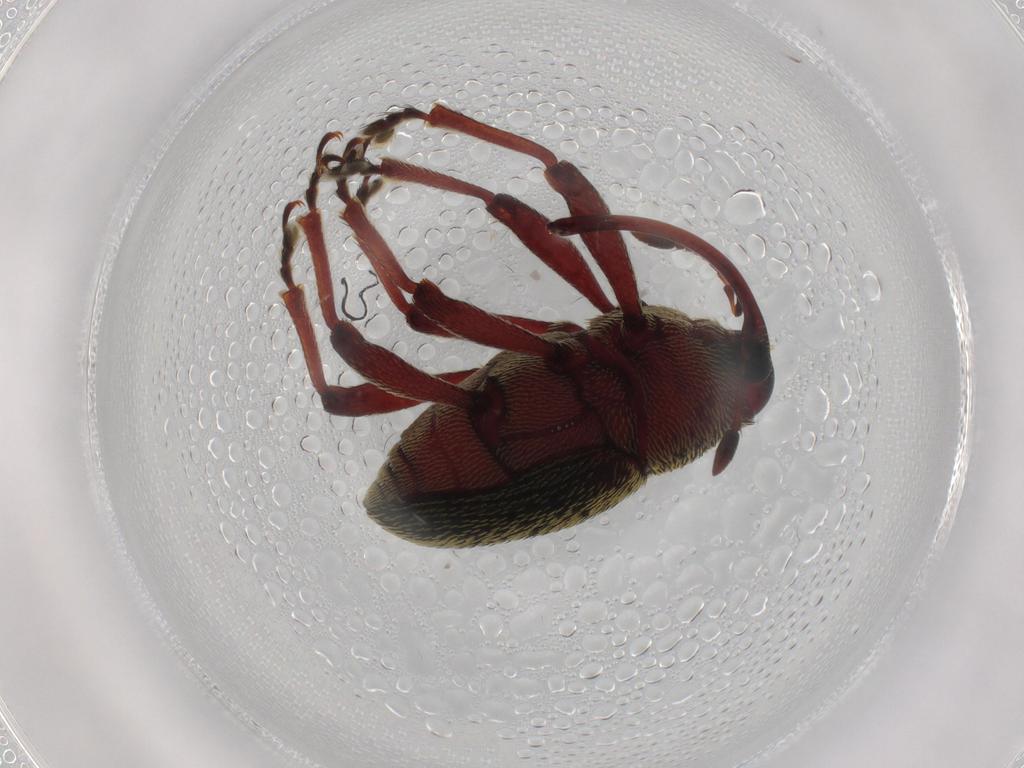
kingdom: Animalia
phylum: Arthropoda
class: Insecta
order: Coleoptera
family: Curculionidae
